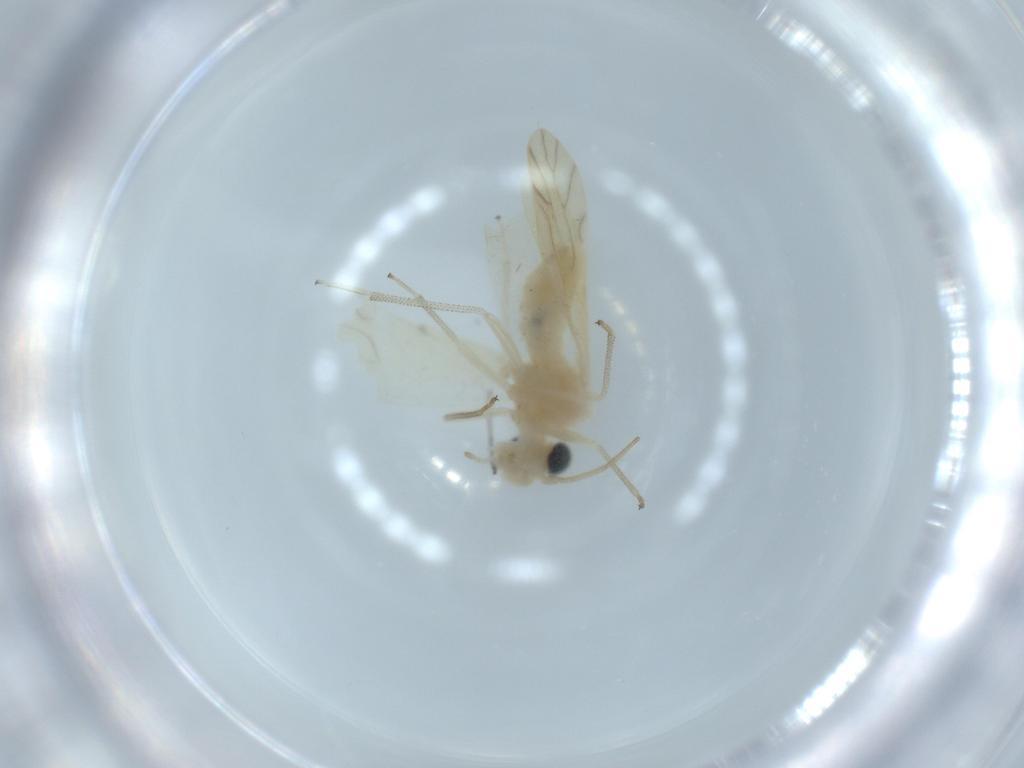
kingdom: Animalia
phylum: Arthropoda
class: Insecta
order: Psocodea
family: Caeciliusidae
